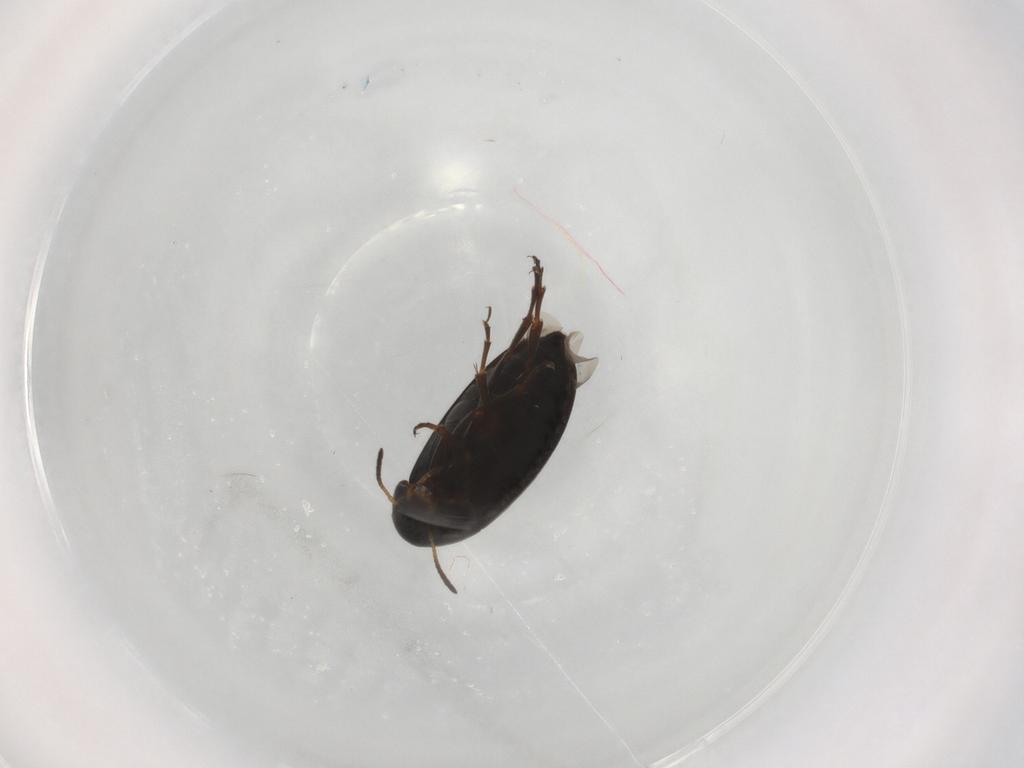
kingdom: Animalia
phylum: Arthropoda
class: Insecta
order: Coleoptera
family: Scraptiidae
